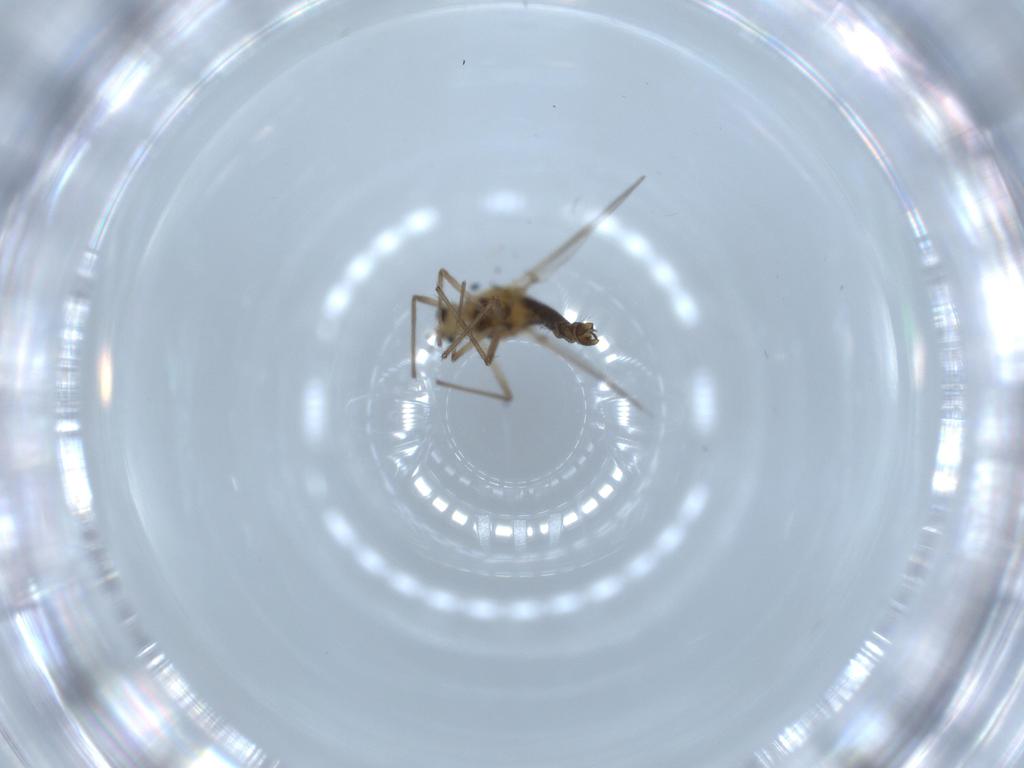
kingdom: Animalia
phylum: Arthropoda
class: Insecta
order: Diptera
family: Chironomidae
